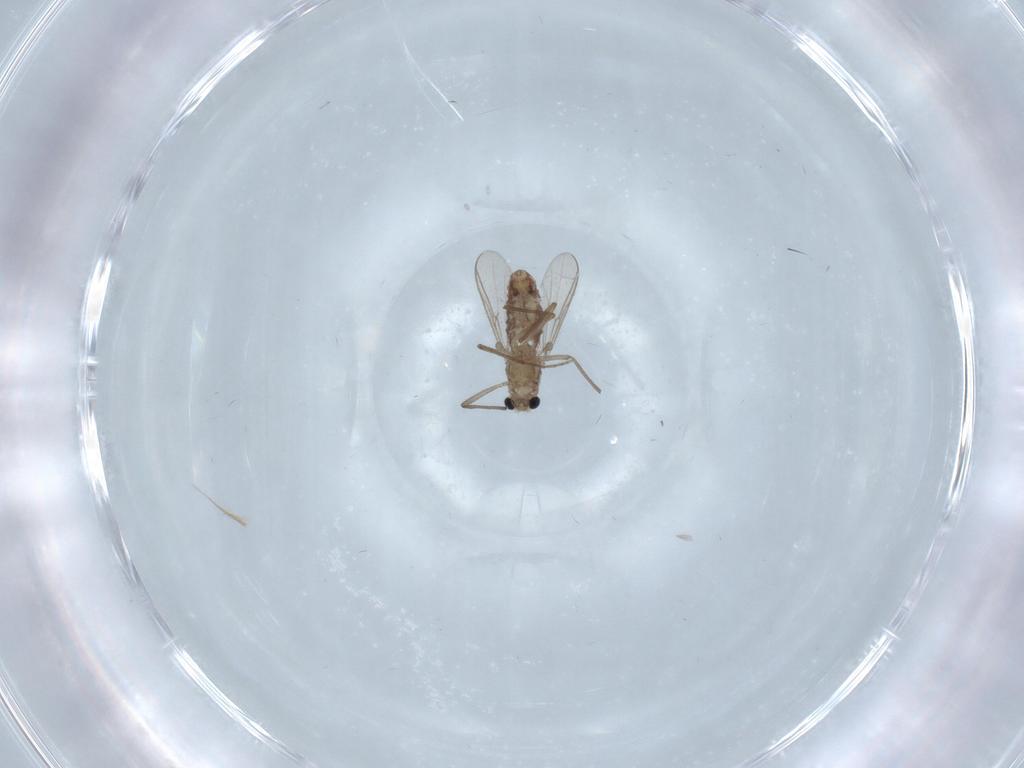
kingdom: Animalia
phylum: Arthropoda
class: Insecta
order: Diptera
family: Chironomidae
